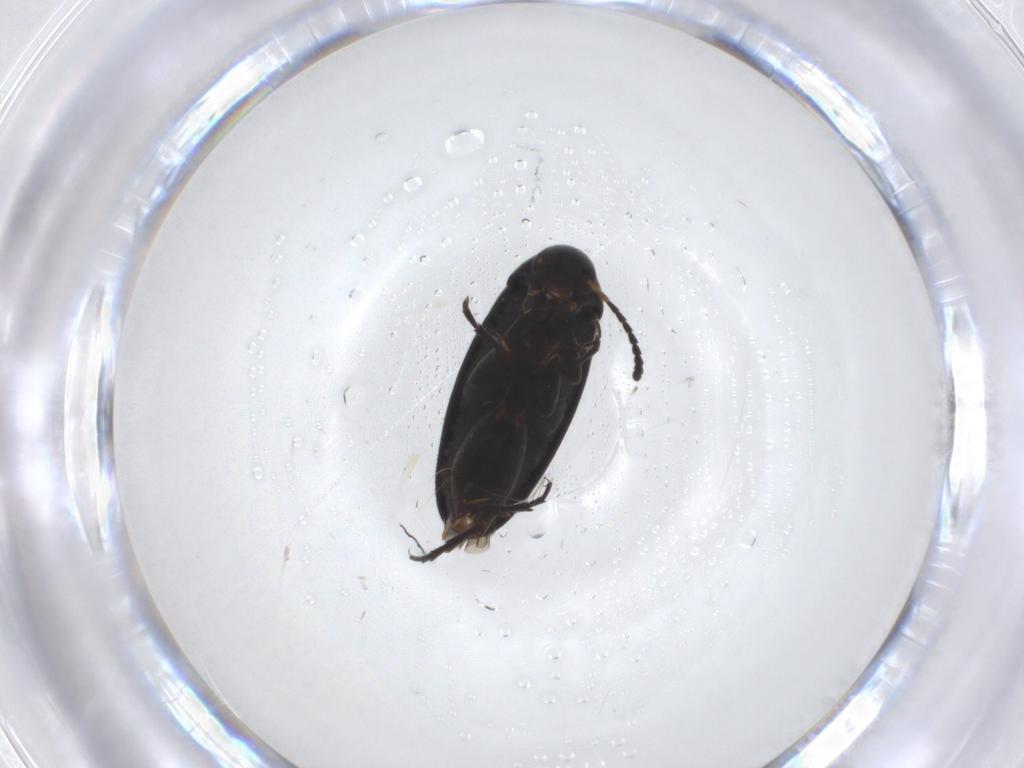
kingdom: Animalia
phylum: Arthropoda
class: Insecta
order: Coleoptera
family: Scraptiidae
